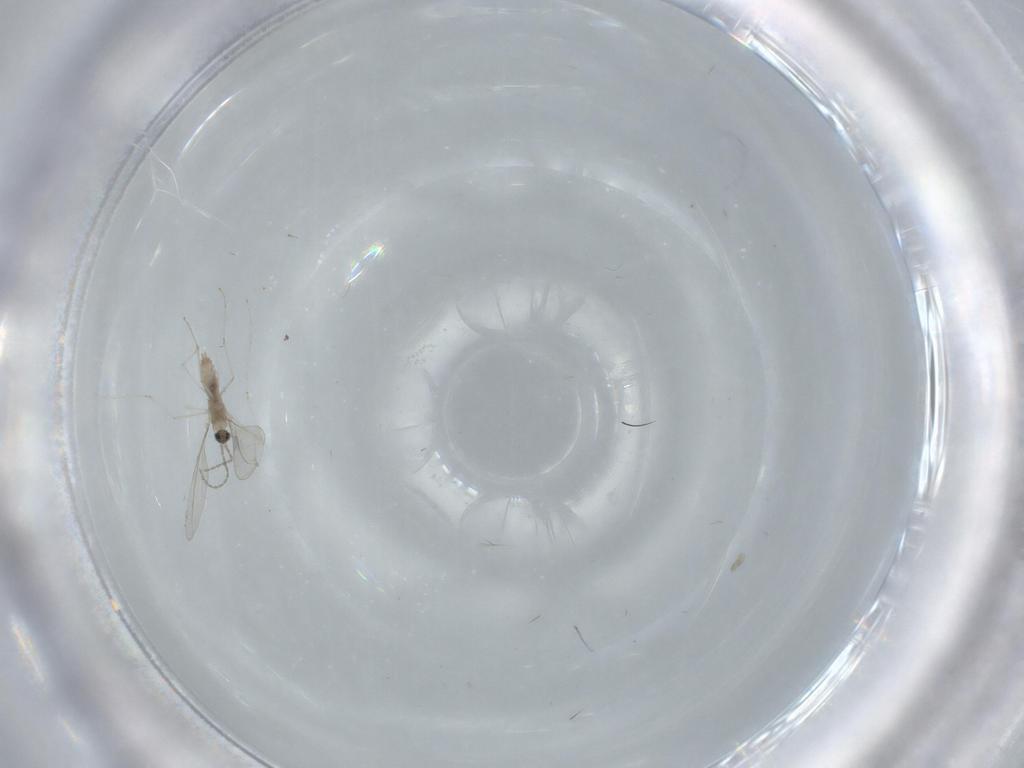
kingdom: Animalia
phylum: Arthropoda
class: Insecta
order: Diptera
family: Cecidomyiidae
